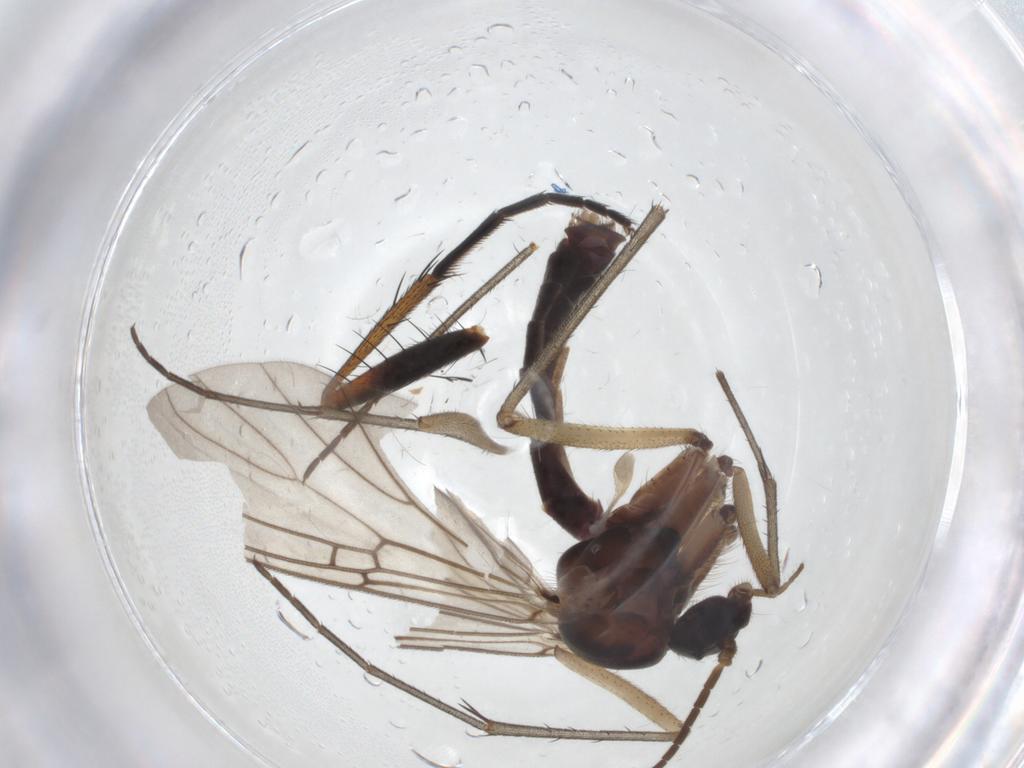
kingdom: Animalia
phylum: Arthropoda
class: Insecta
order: Diptera
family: Mycetophilidae
